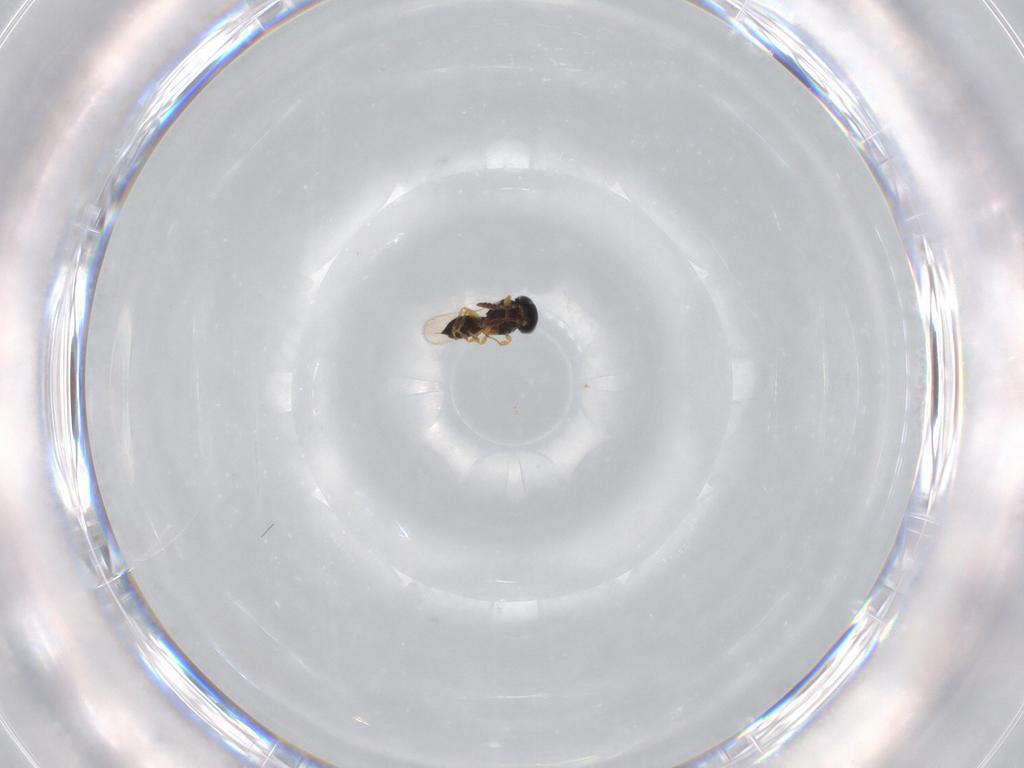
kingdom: Animalia
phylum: Arthropoda
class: Insecta
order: Hymenoptera
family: Scelionidae
